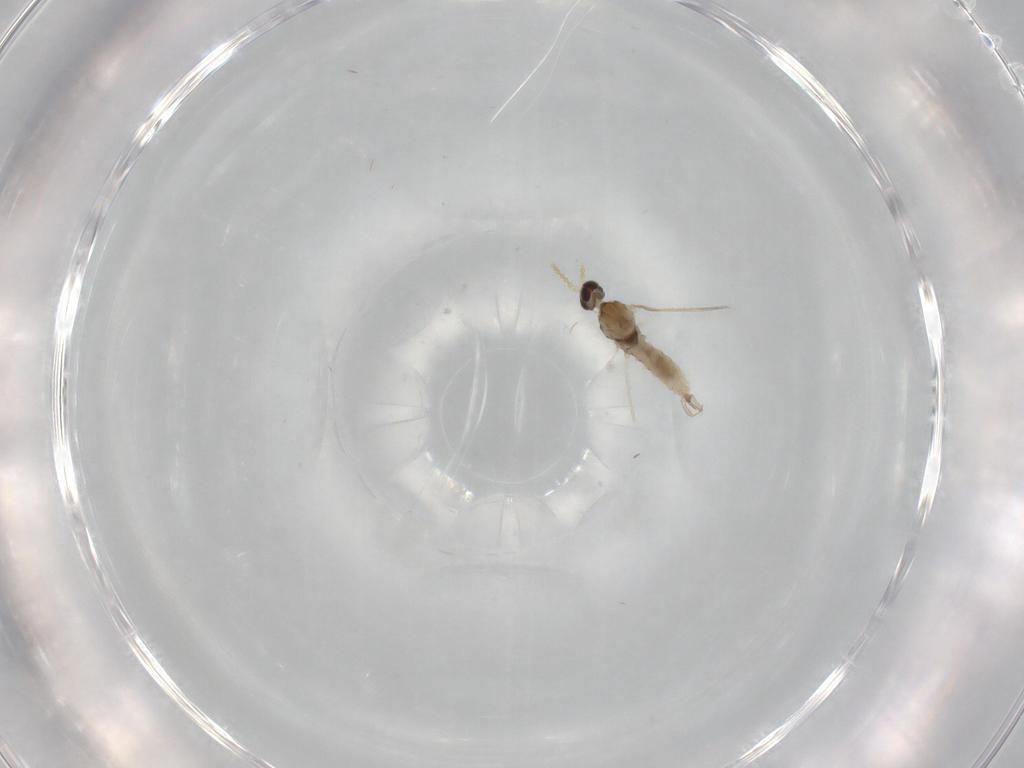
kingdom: Animalia
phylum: Arthropoda
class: Insecta
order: Diptera
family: Cecidomyiidae
